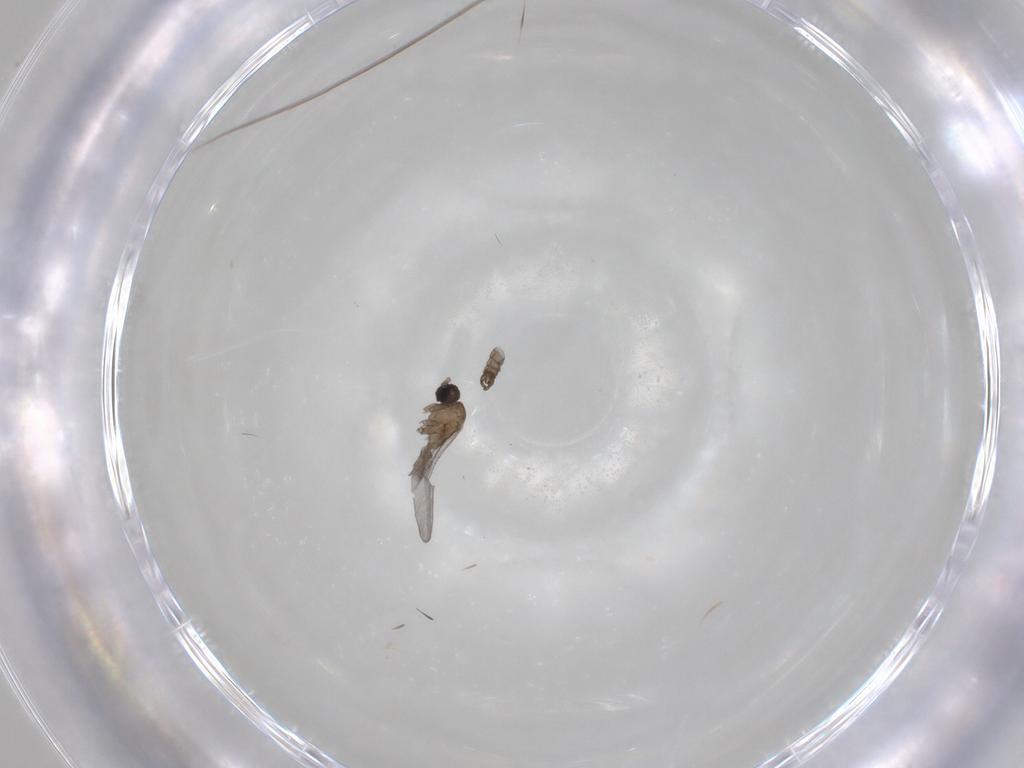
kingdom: Animalia
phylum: Arthropoda
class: Insecta
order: Diptera
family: Sciaridae
